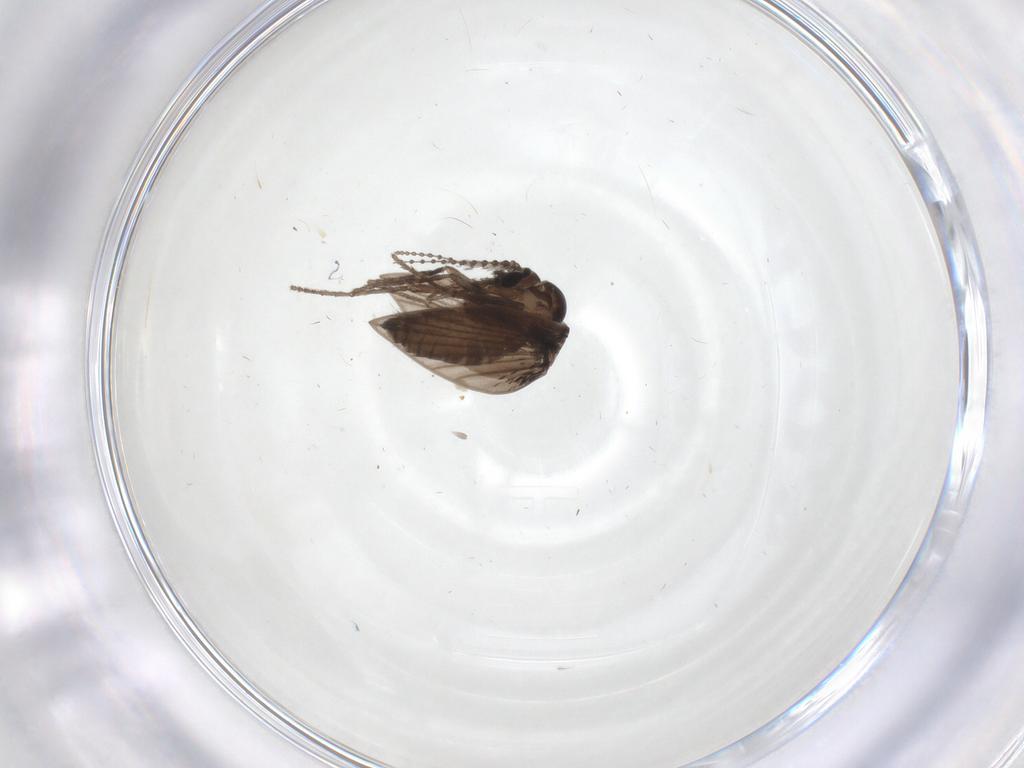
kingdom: Animalia
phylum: Arthropoda
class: Insecta
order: Diptera
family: Psychodidae
